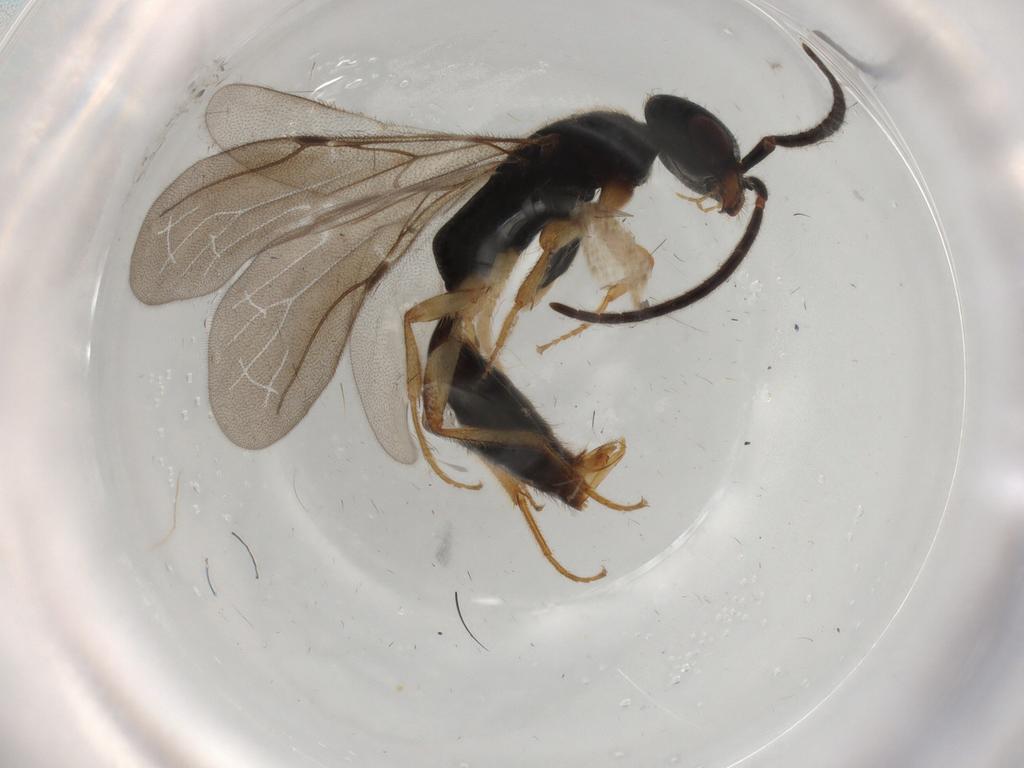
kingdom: Animalia
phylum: Arthropoda
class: Insecta
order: Hymenoptera
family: Bethylidae
